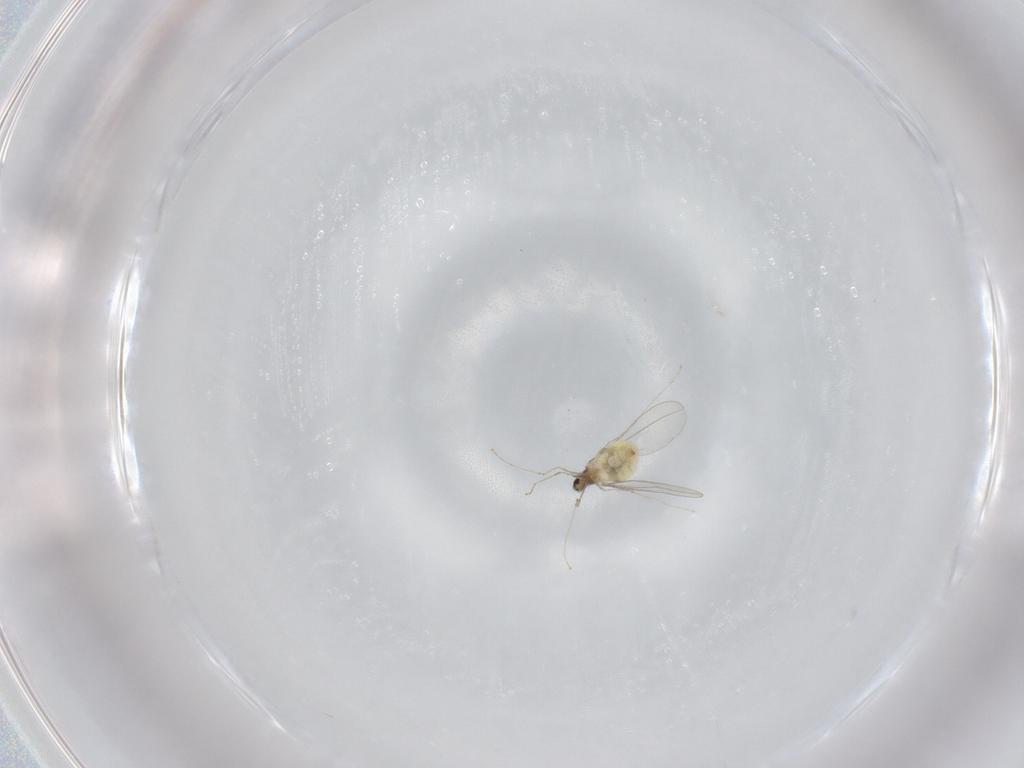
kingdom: Animalia
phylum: Arthropoda
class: Insecta
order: Diptera
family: Cecidomyiidae
